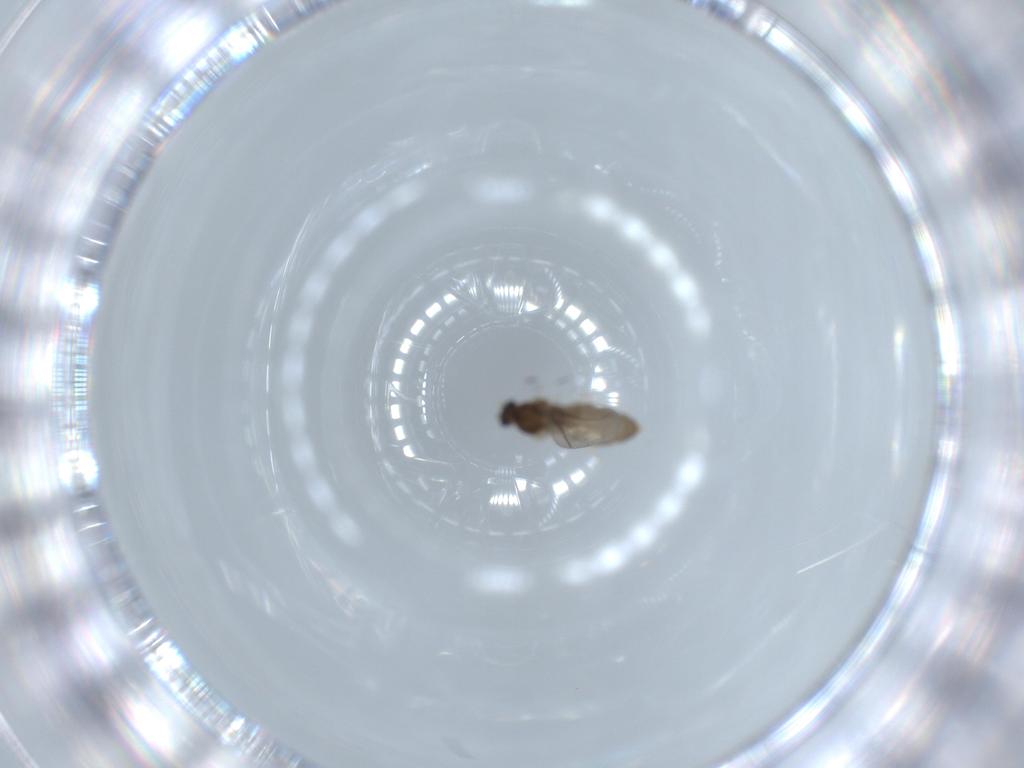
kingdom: Animalia
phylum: Arthropoda
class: Insecta
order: Diptera
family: Cecidomyiidae
